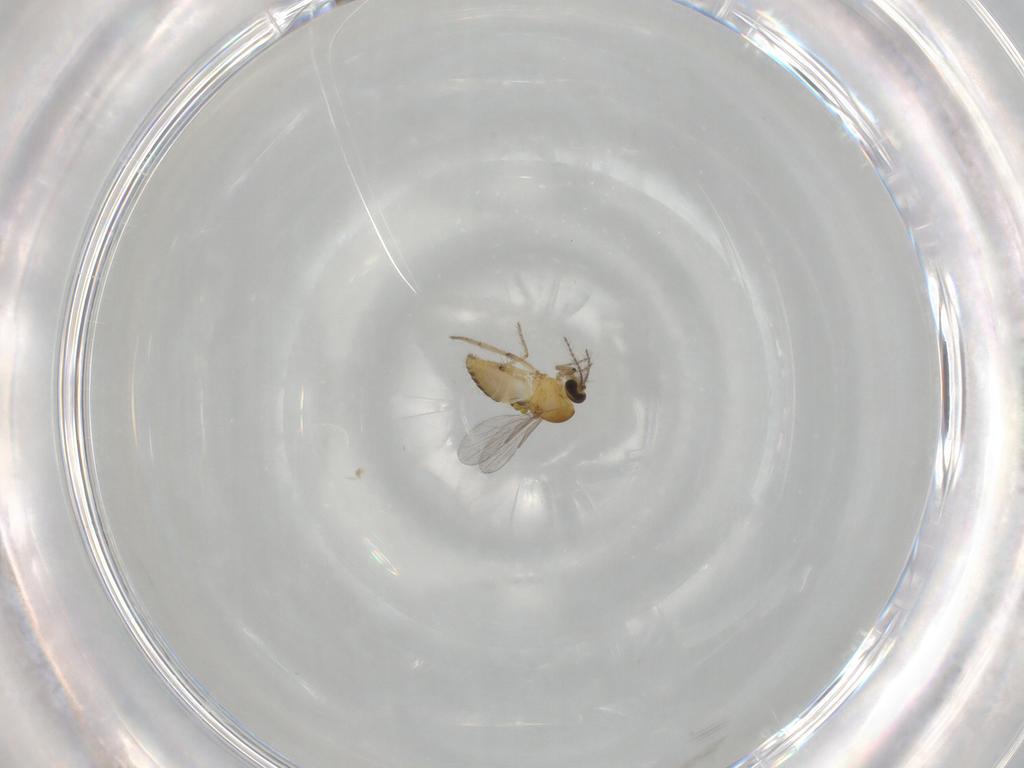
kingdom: Animalia
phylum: Arthropoda
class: Insecta
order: Diptera
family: Ceratopogonidae
